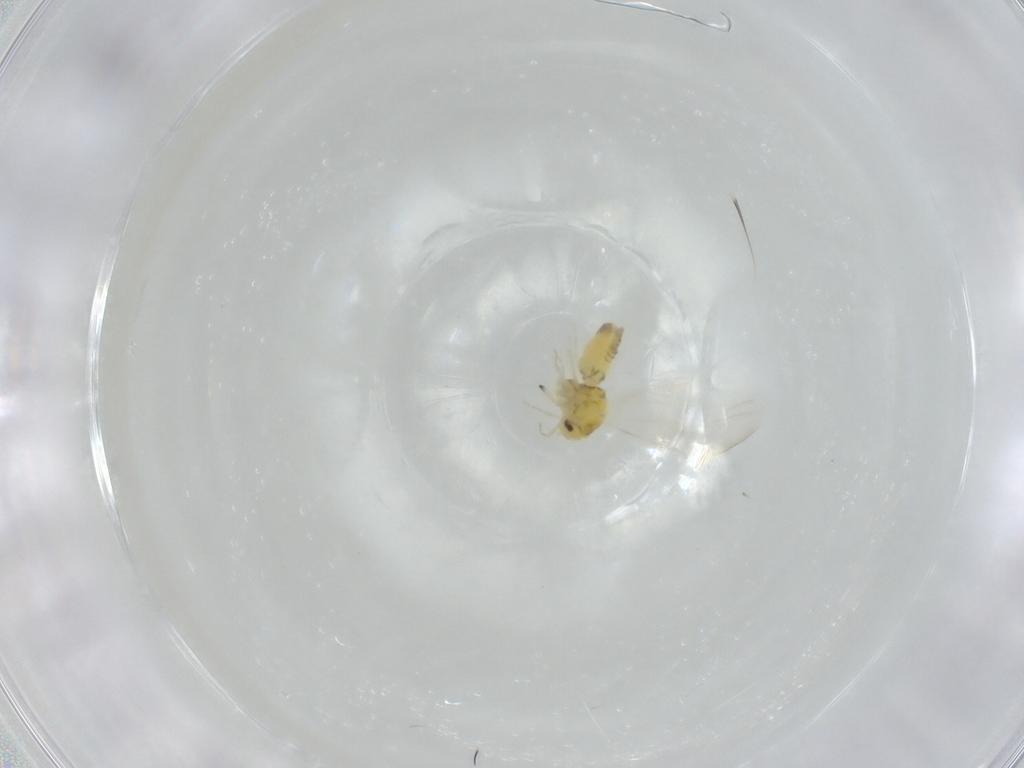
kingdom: Animalia
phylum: Arthropoda
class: Insecta
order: Hemiptera
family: Aleyrodidae
